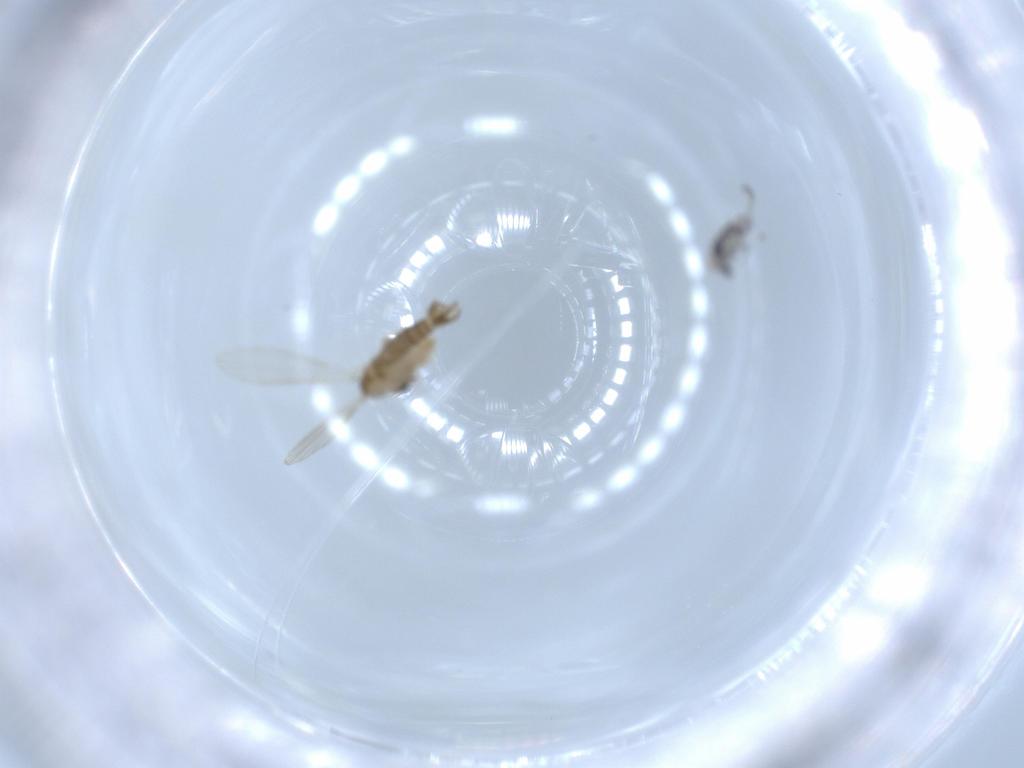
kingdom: Animalia
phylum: Arthropoda
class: Insecta
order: Diptera
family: Psychodidae
